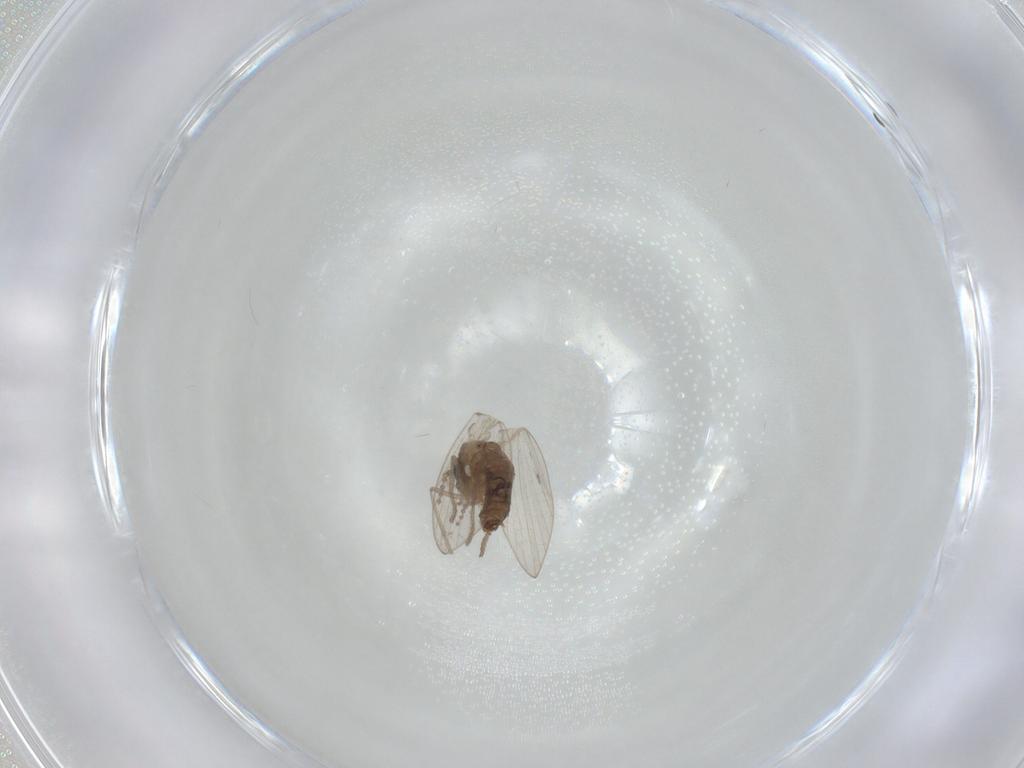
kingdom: Animalia
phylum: Arthropoda
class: Insecta
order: Diptera
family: Psychodidae
